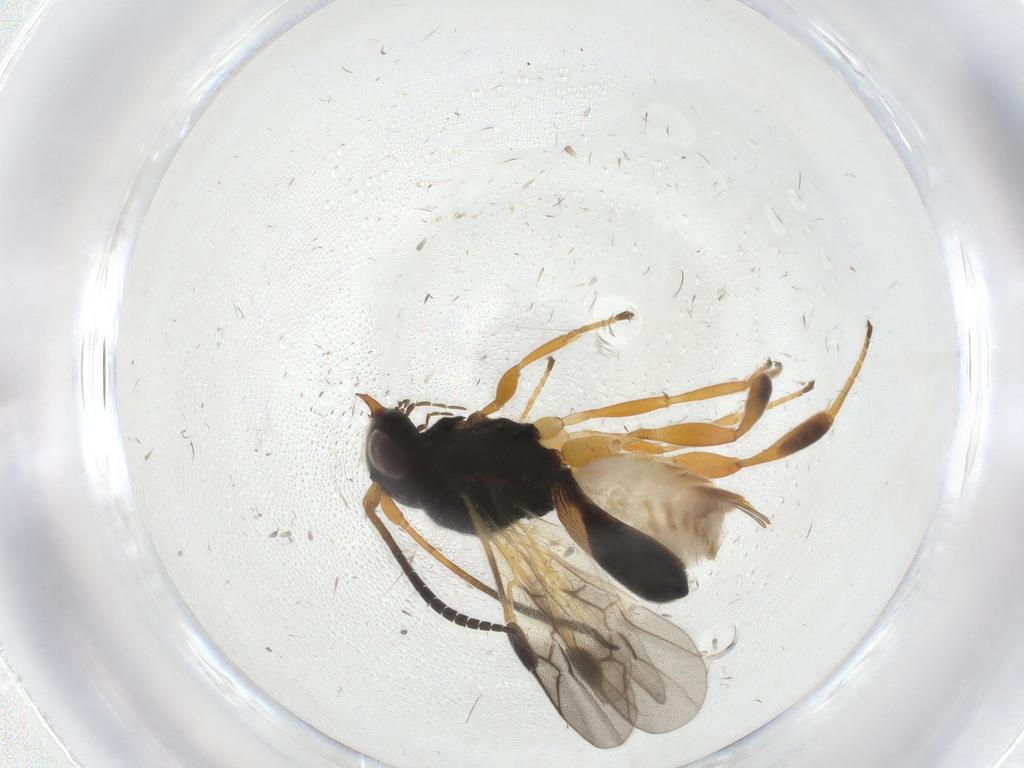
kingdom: Animalia
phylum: Arthropoda
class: Insecta
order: Hymenoptera
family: Braconidae
